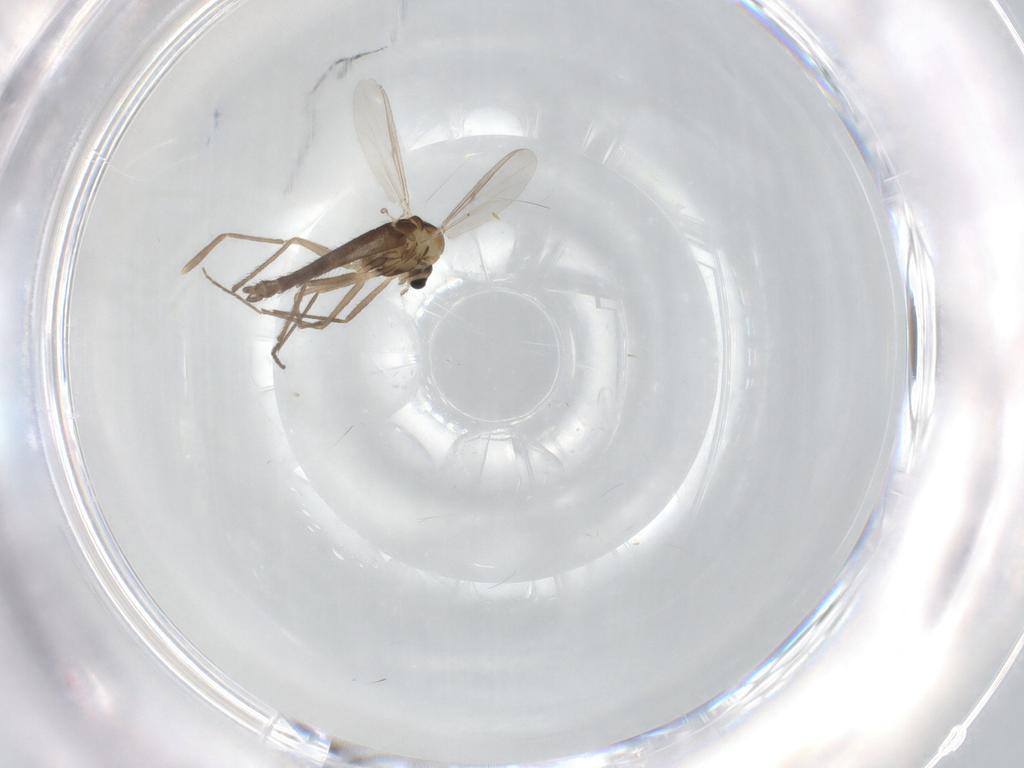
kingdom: Animalia
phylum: Arthropoda
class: Insecta
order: Diptera
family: Chironomidae
